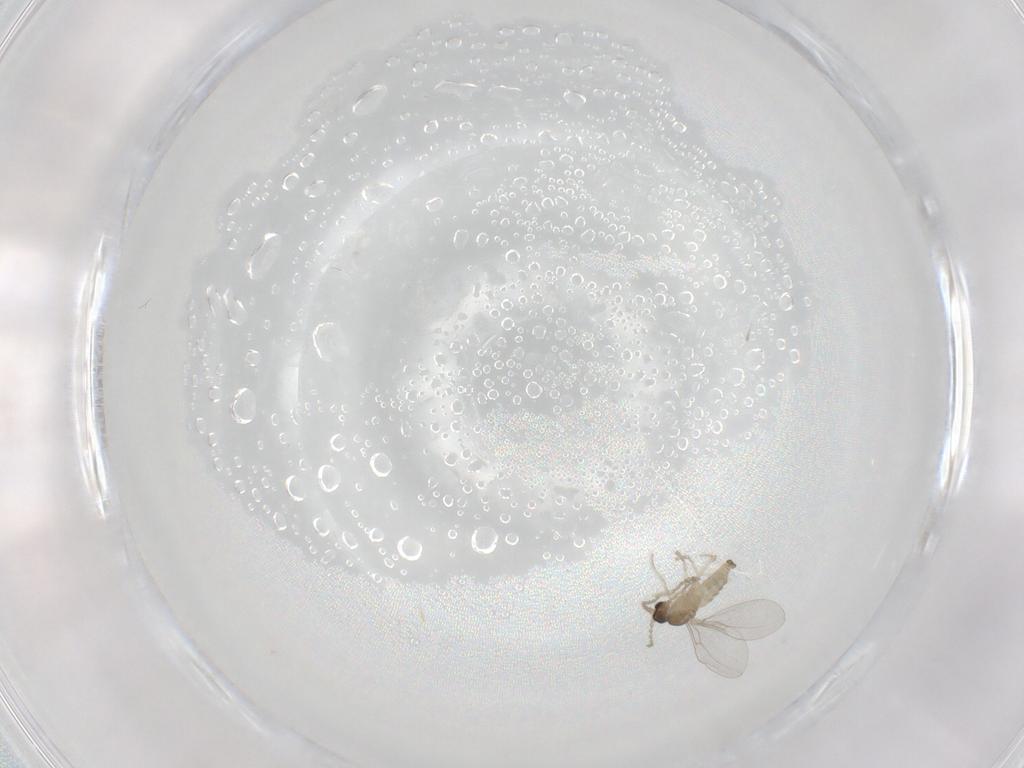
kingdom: Animalia
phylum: Arthropoda
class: Insecta
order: Diptera
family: Cecidomyiidae
